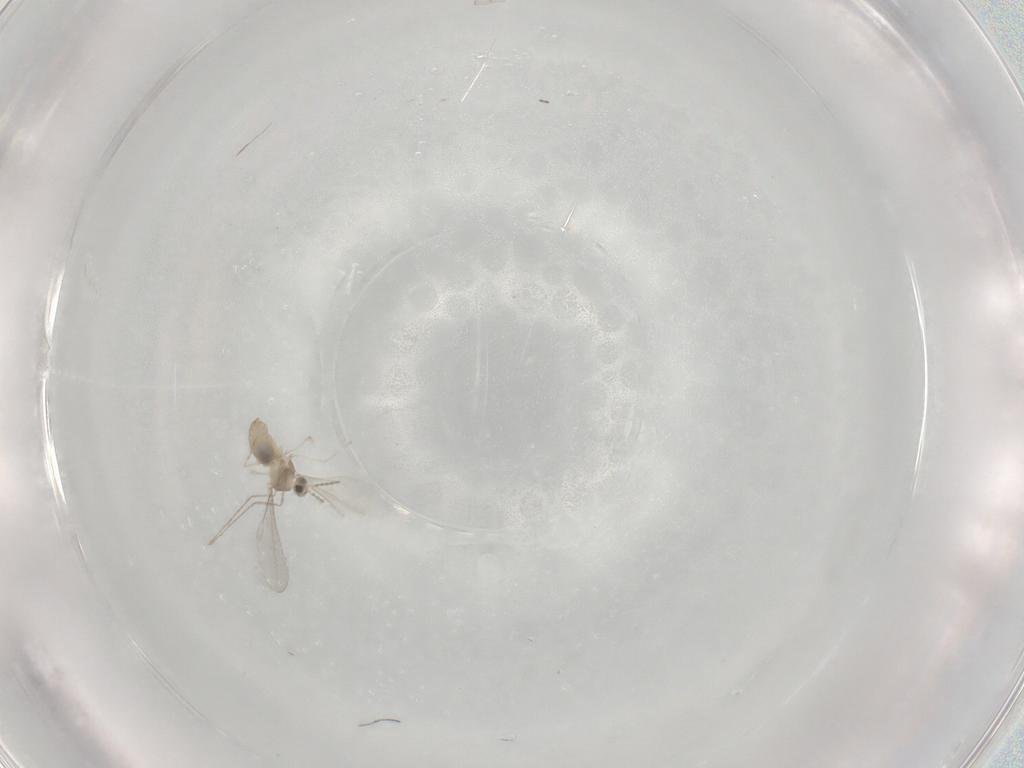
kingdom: Animalia
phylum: Arthropoda
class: Insecta
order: Diptera
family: Cecidomyiidae
